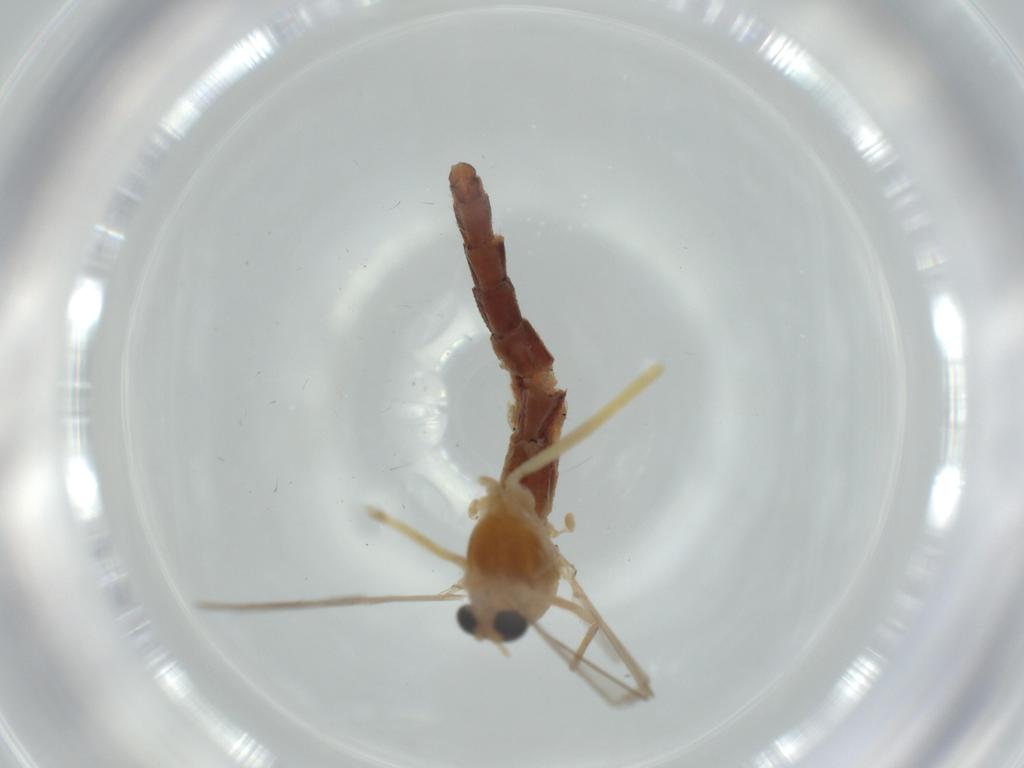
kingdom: Animalia
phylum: Arthropoda
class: Insecta
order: Diptera
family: Chironomidae
